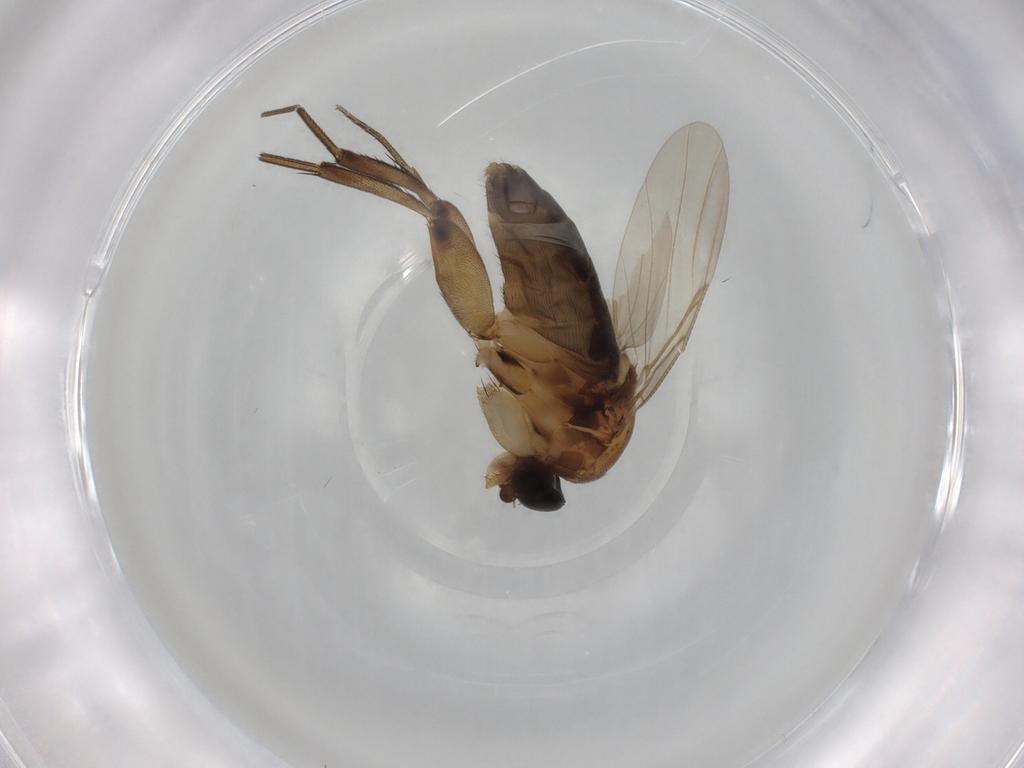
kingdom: Animalia
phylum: Arthropoda
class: Insecta
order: Diptera
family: Phoridae
